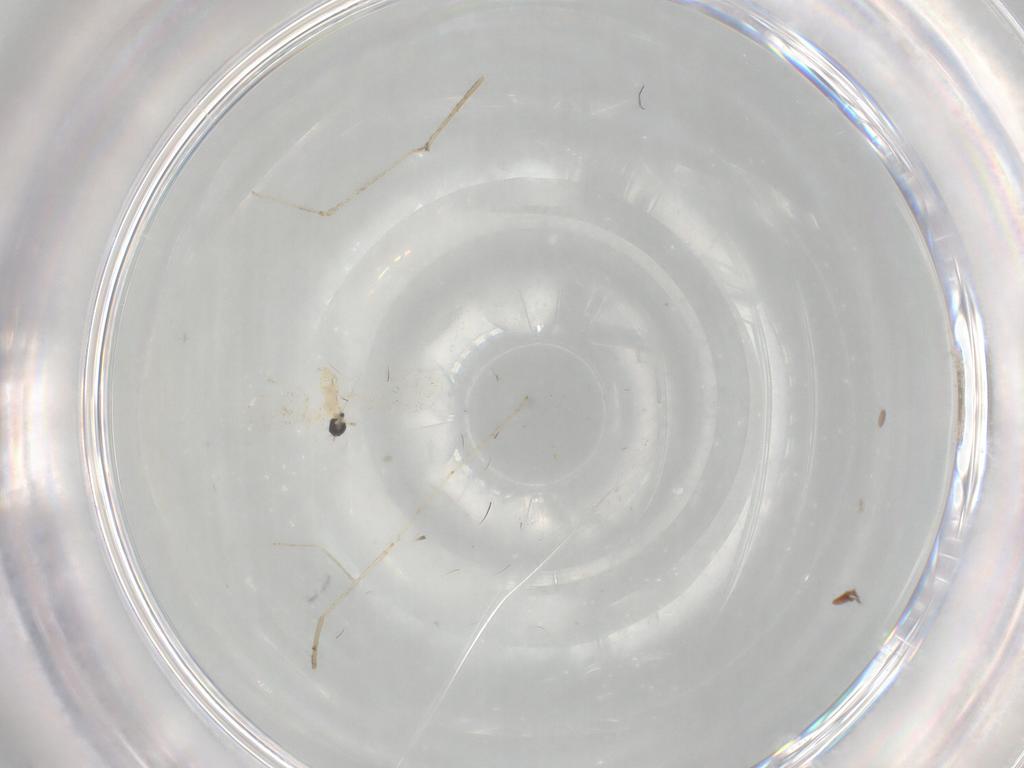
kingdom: Animalia
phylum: Arthropoda
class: Insecta
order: Diptera
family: Cecidomyiidae
